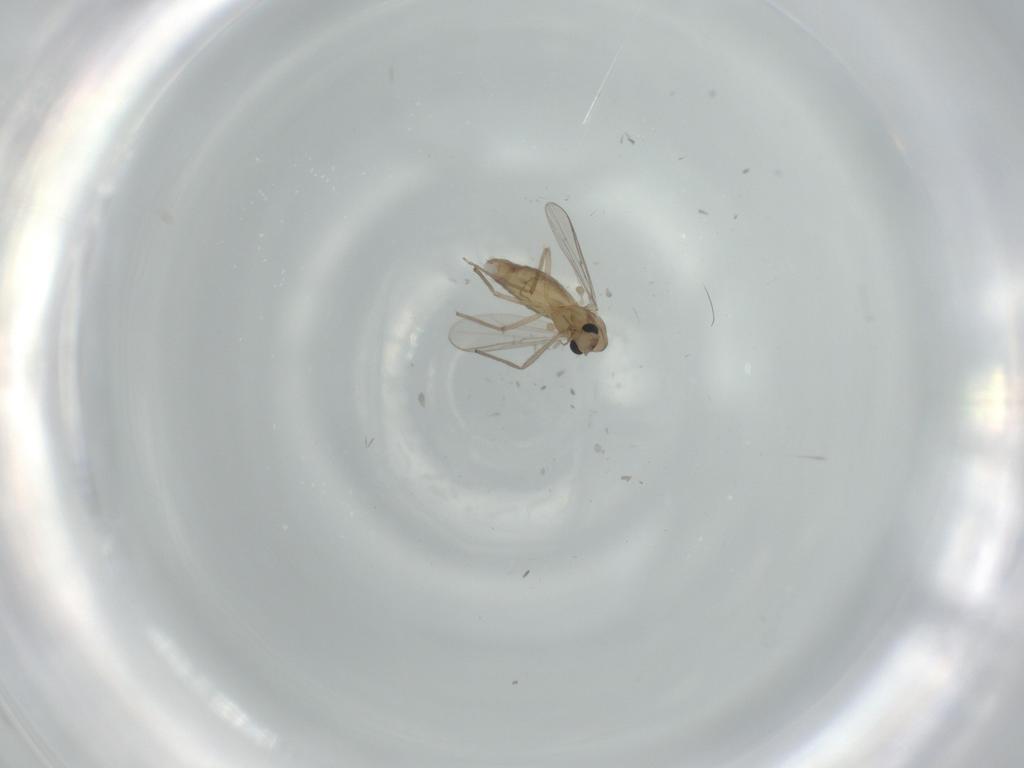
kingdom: Animalia
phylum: Arthropoda
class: Insecta
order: Diptera
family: Chironomidae
